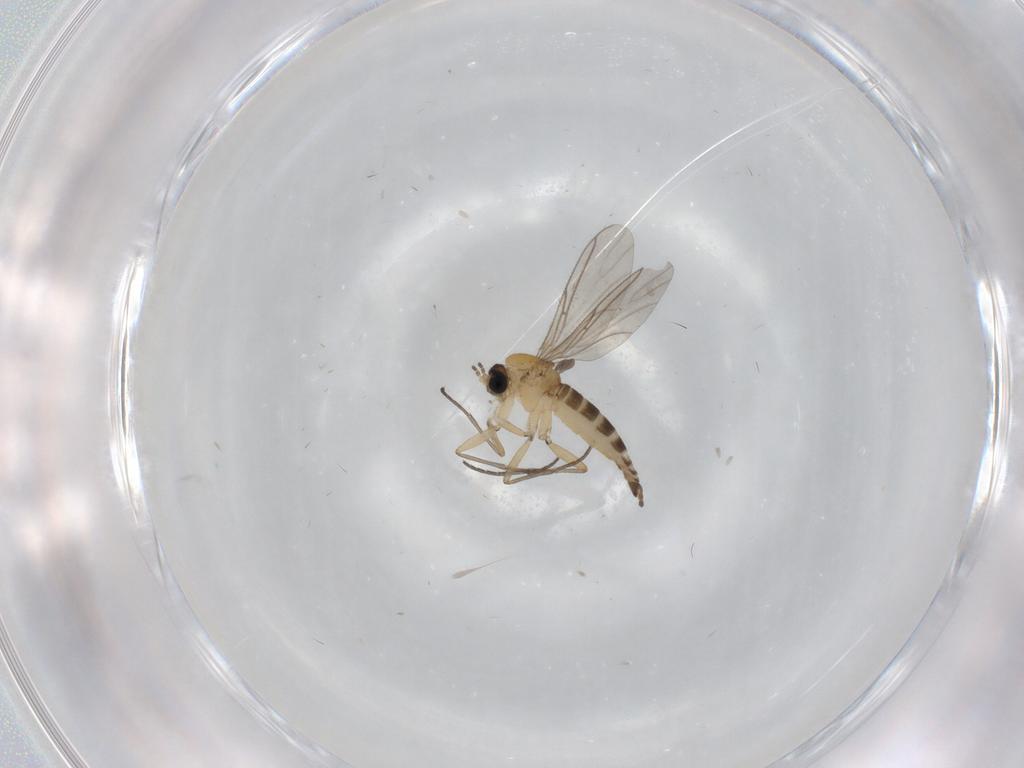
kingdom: Animalia
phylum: Arthropoda
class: Insecta
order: Diptera
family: Limoniidae
